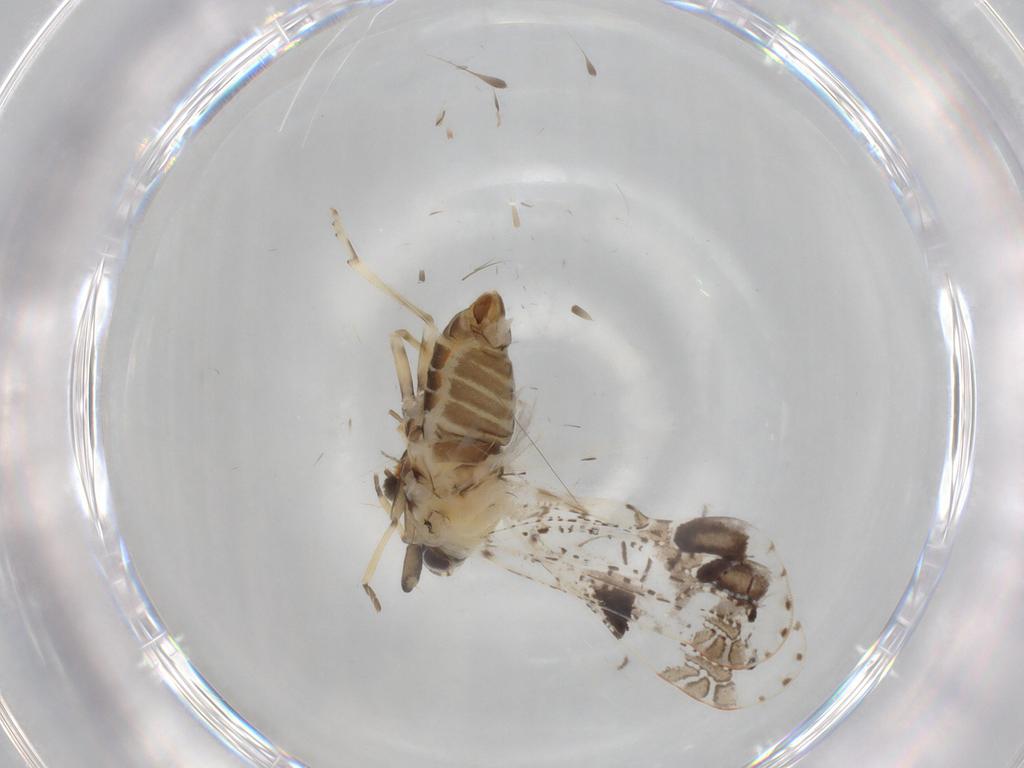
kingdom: Animalia
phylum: Arthropoda
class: Insecta
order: Hemiptera
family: Derbidae
